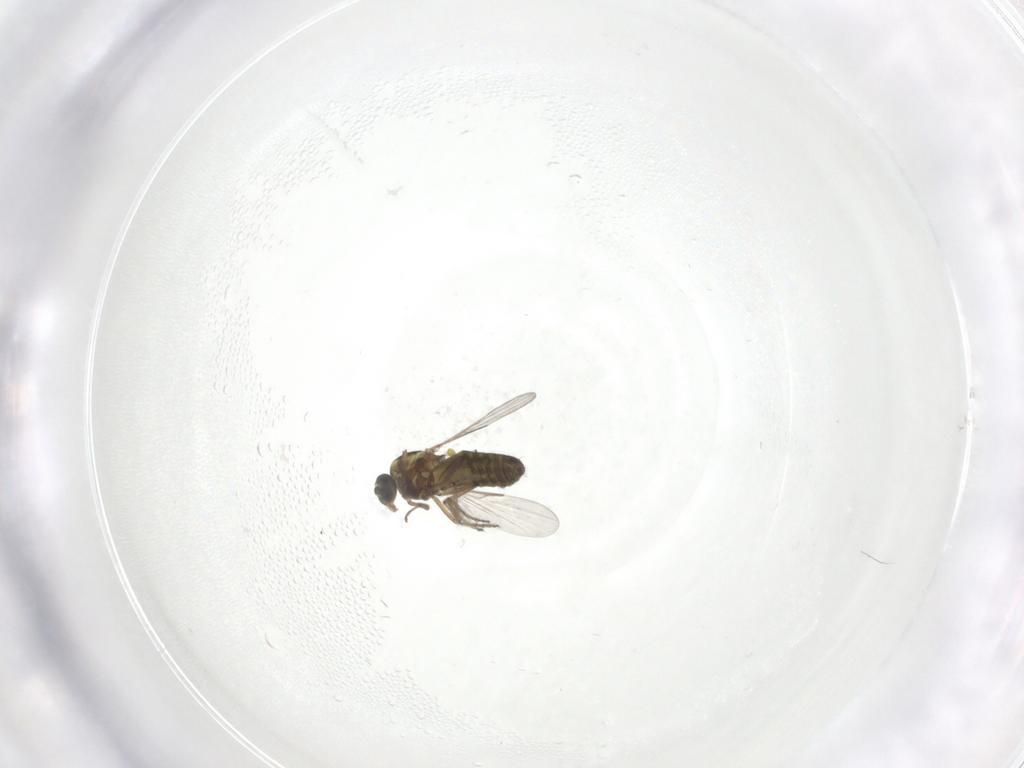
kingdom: Animalia
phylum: Arthropoda
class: Insecta
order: Diptera
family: Ceratopogonidae
